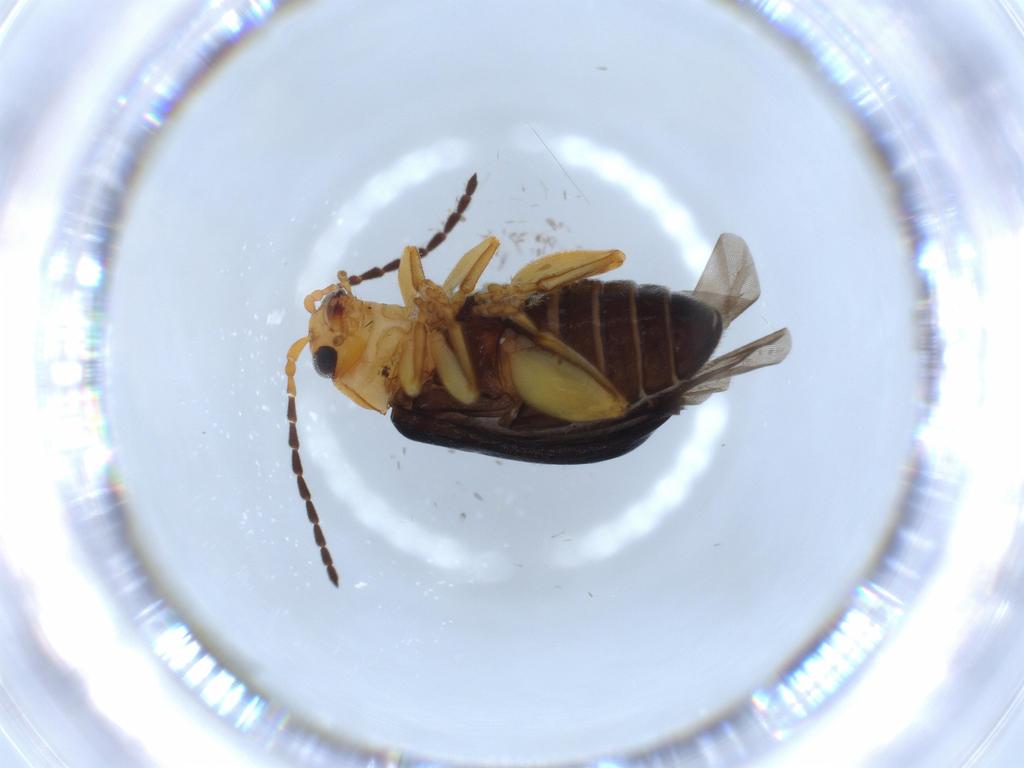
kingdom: Animalia
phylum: Arthropoda
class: Insecta
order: Coleoptera
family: Chrysomelidae
